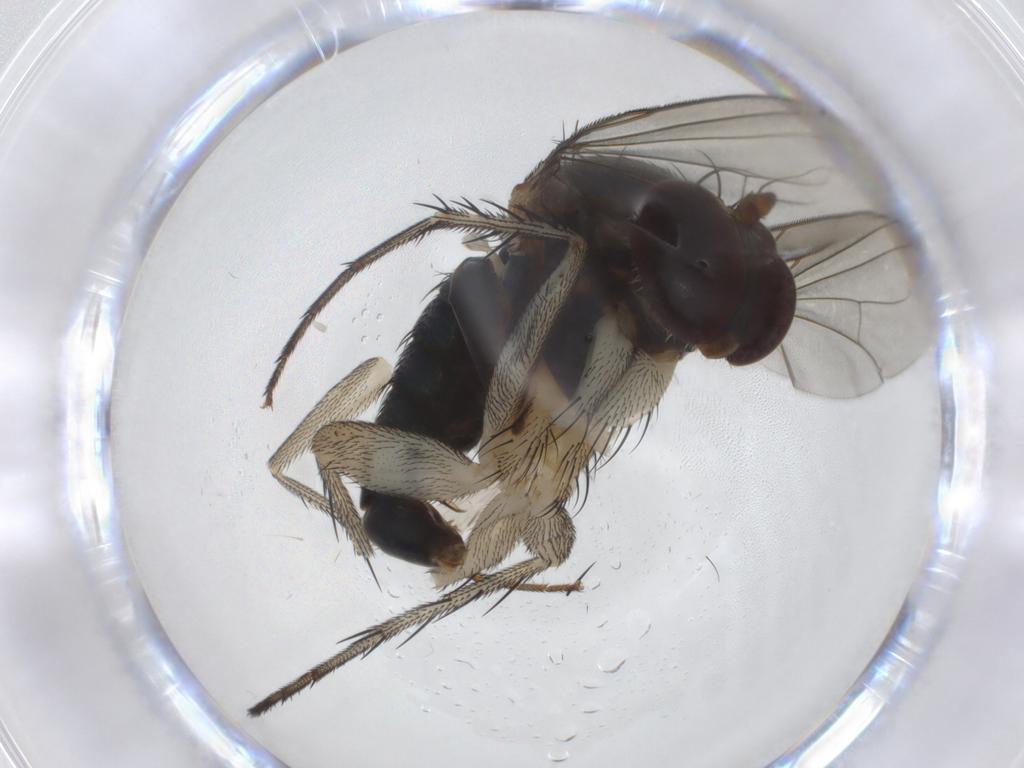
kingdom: Animalia
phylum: Arthropoda
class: Insecta
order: Diptera
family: Dolichopodidae
